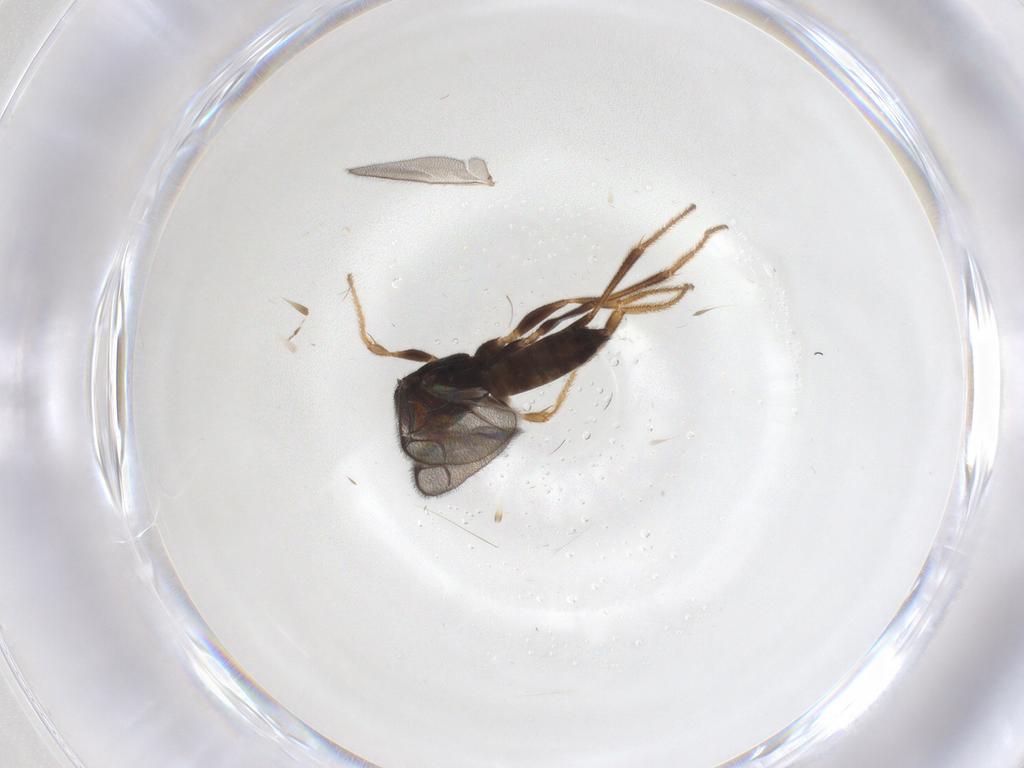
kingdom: Animalia
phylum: Arthropoda
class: Insecta
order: Hymenoptera
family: Dryinidae
